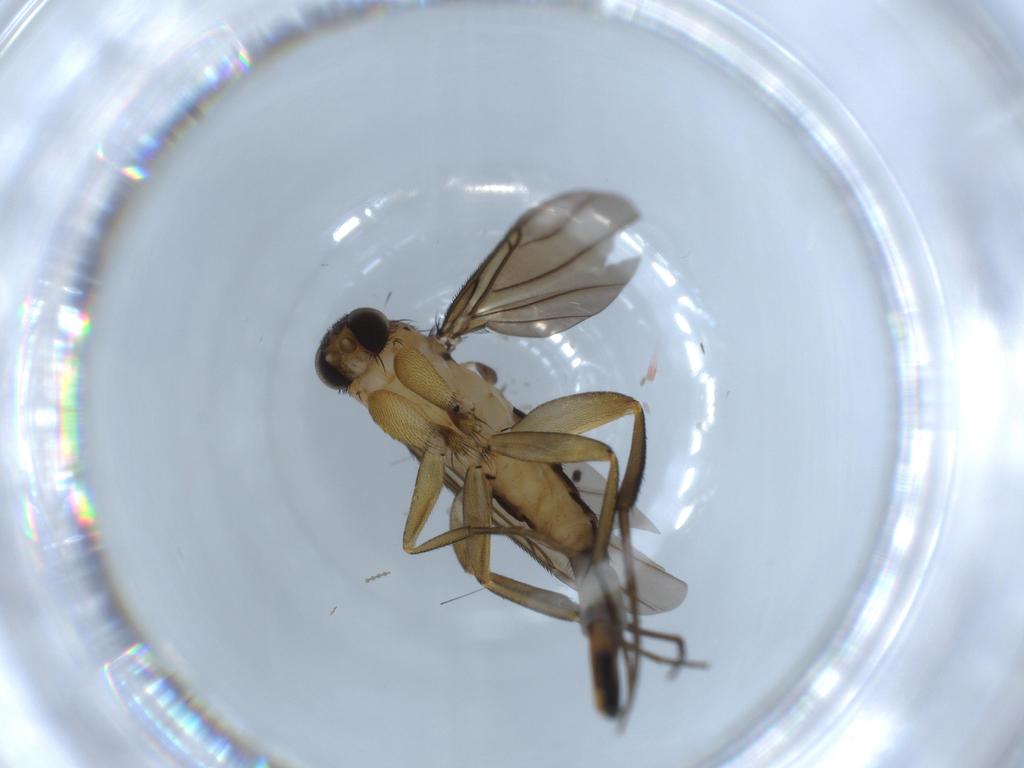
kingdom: Animalia
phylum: Arthropoda
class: Insecta
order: Diptera
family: Phoridae
